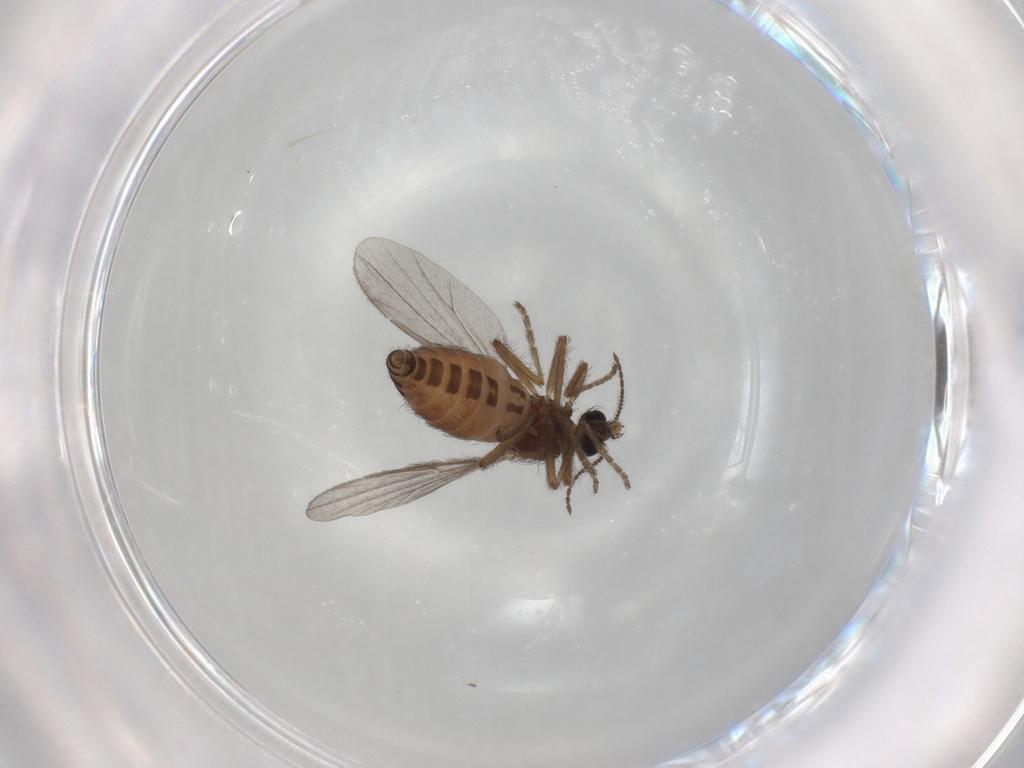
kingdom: Animalia
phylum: Arthropoda
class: Insecta
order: Diptera
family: Ceratopogonidae
